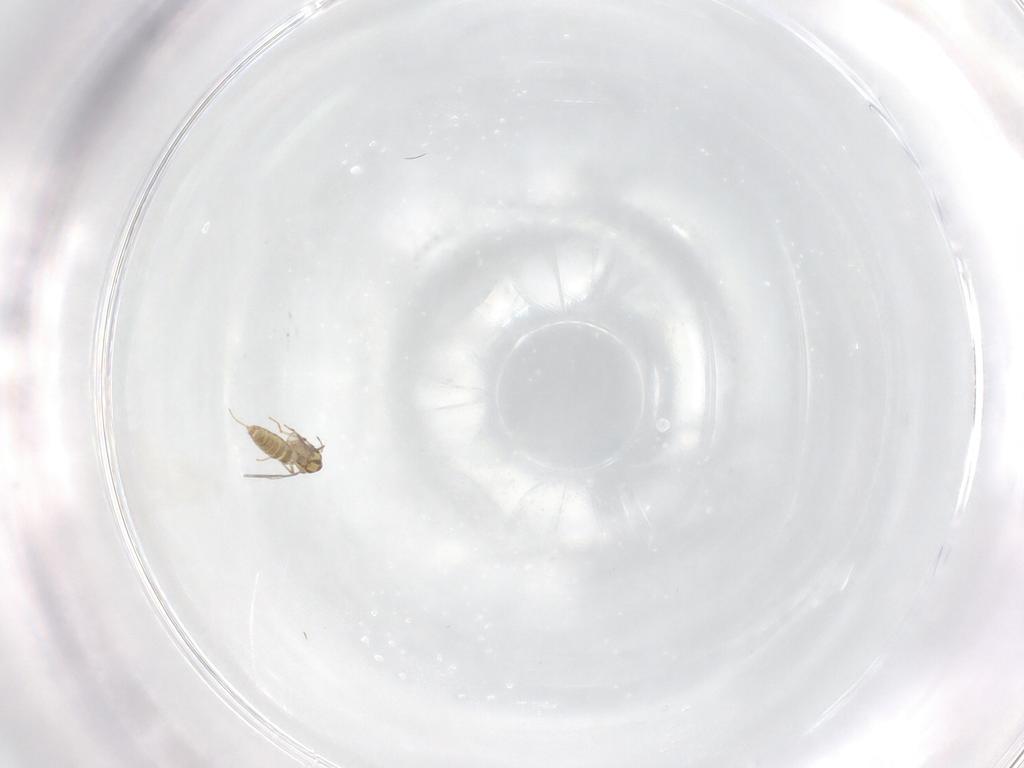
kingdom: Animalia
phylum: Arthropoda
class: Insecta
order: Diptera
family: Chironomidae
